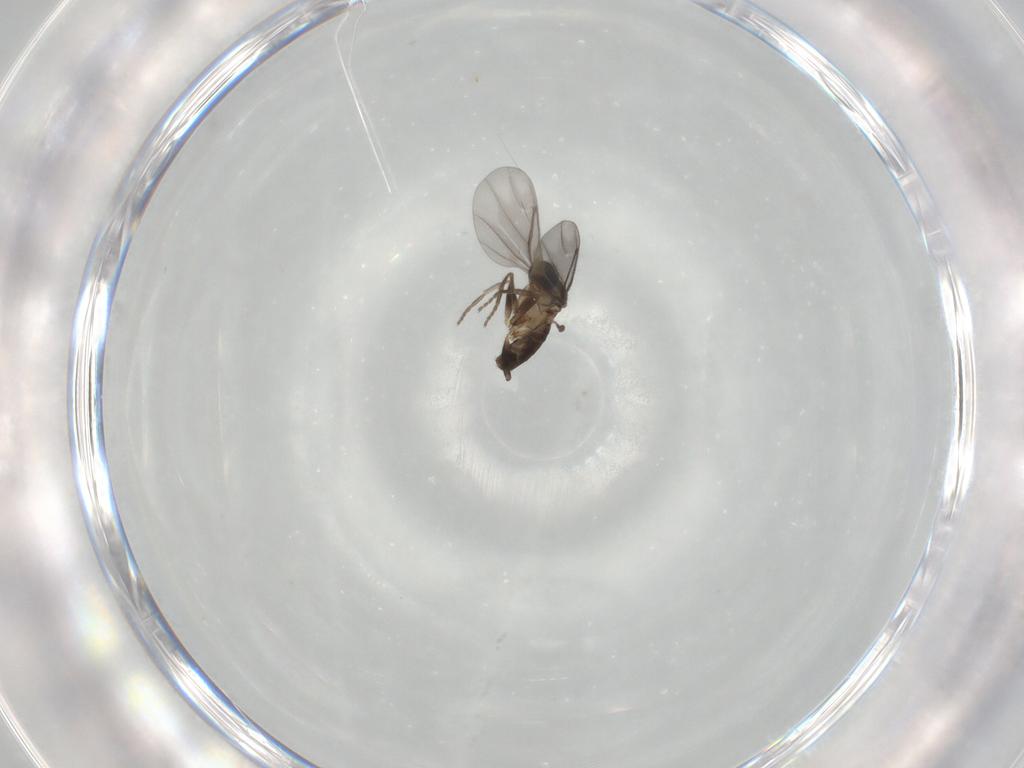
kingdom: Animalia
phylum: Arthropoda
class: Insecta
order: Diptera
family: Phoridae
